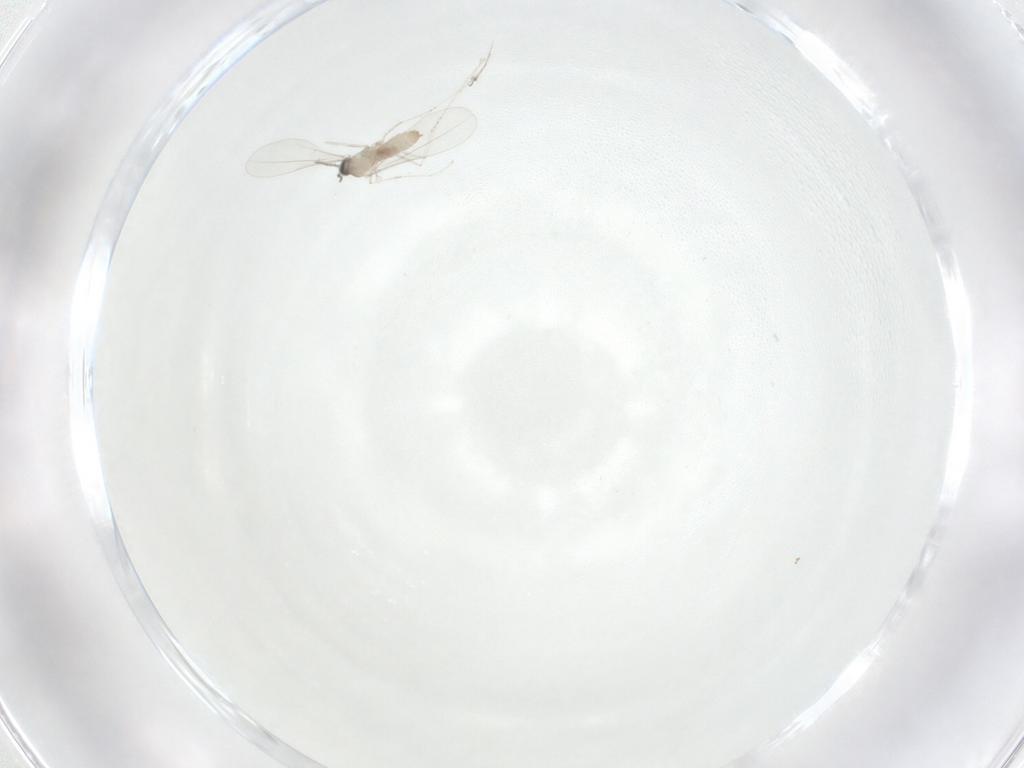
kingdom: Animalia
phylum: Arthropoda
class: Insecta
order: Diptera
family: Cecidomyiidae
